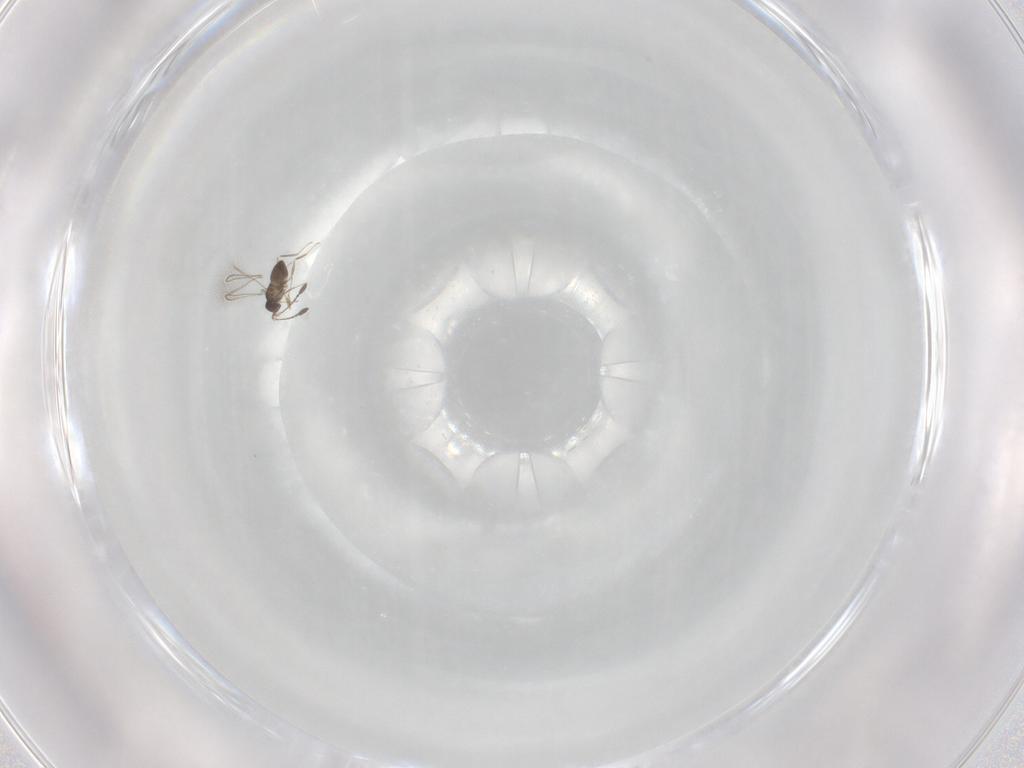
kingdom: Animalia
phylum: Arthropoda
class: Insecta
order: Hymenoptera
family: Mymaridae
